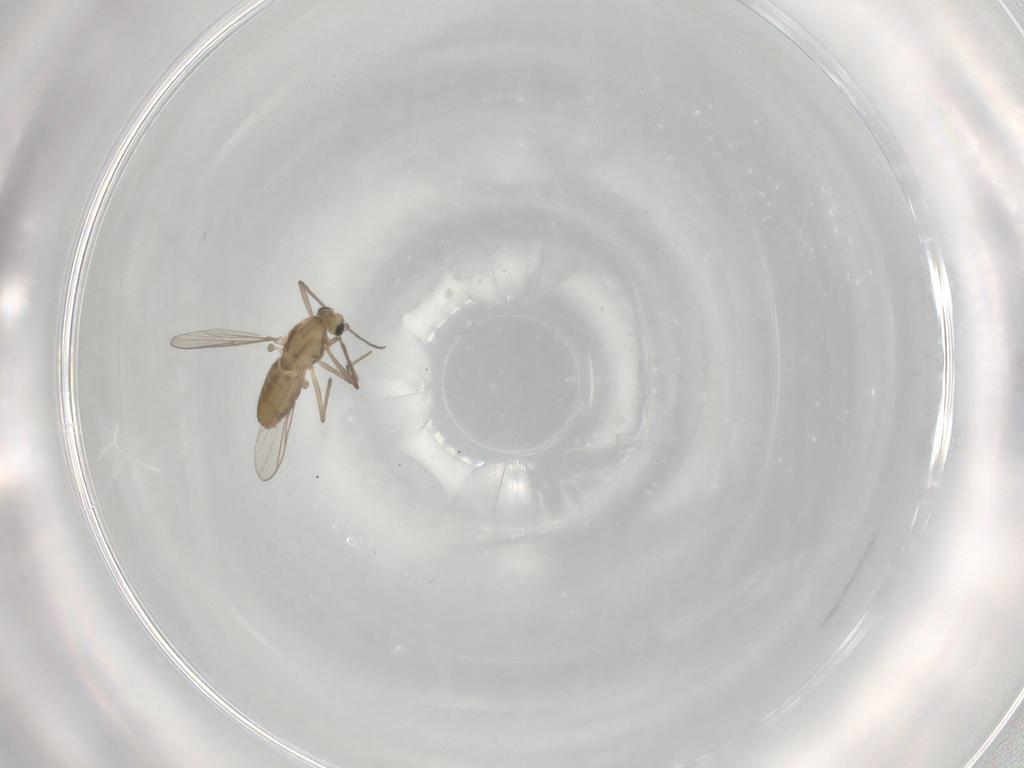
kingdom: Animalia
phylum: Arthropoda
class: Insecta
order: Diptera
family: Chironomidae
